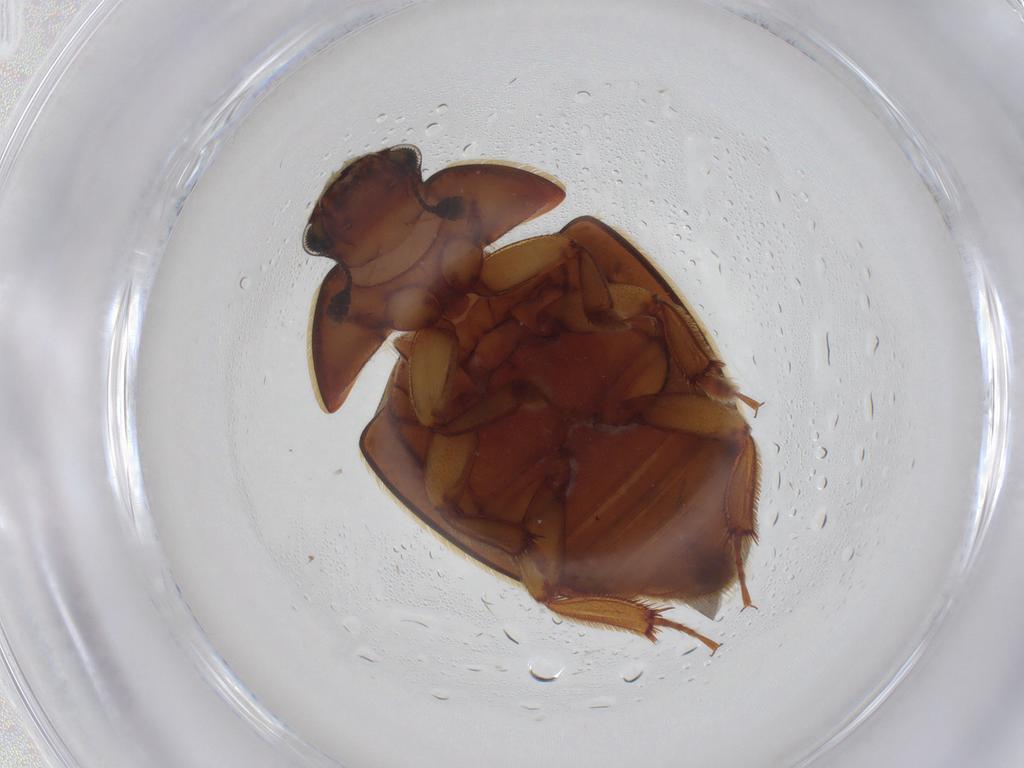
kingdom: Animalia
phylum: Arthropoda
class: Insecta
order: Coleoptera
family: Nitidulidae
